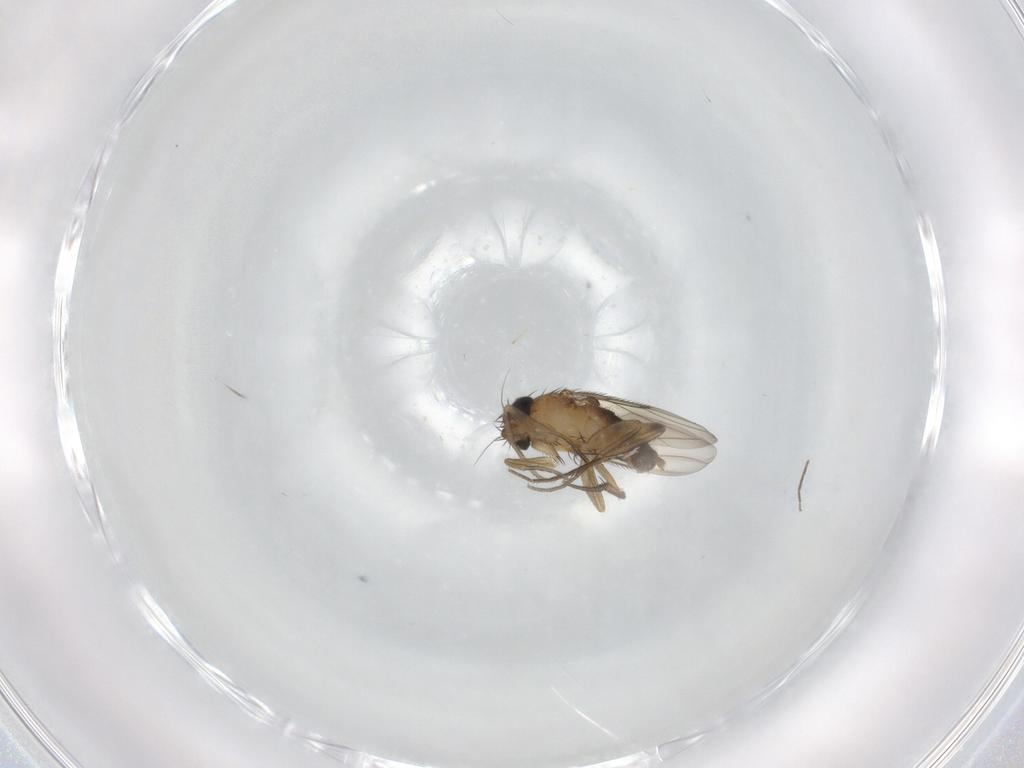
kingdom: Animalia
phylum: Arthropoda
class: Insecta
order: Diptera
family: Phoridae
